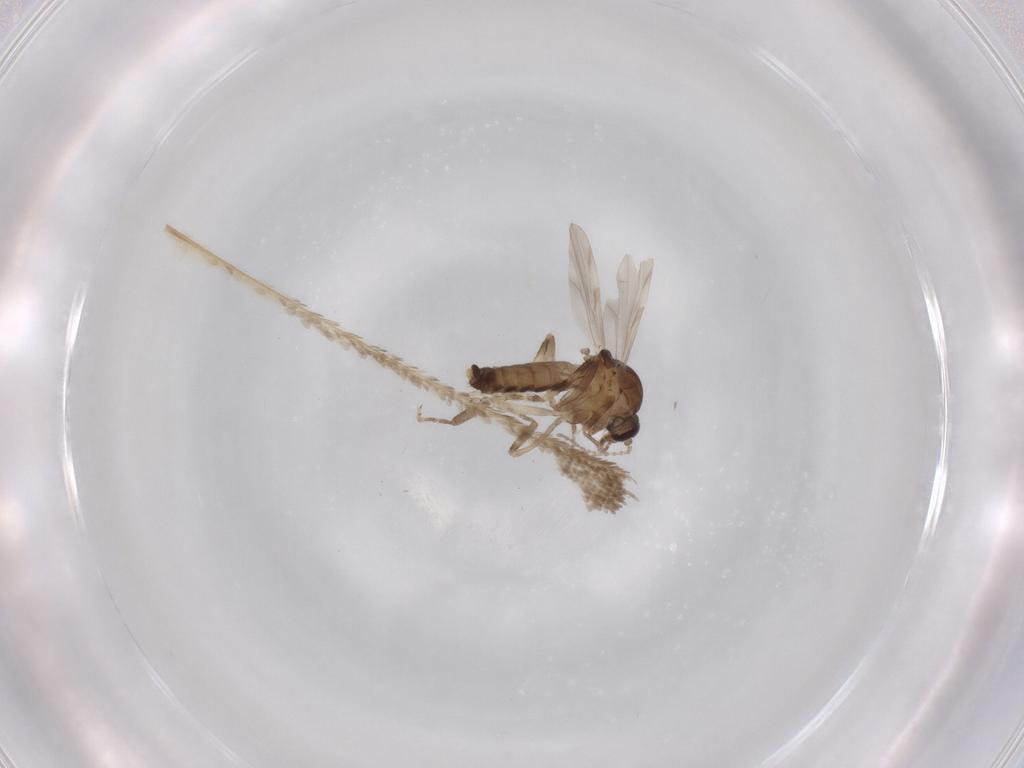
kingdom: Animalia
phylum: Arthropoda
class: Insecta
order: Diptera
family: Ceratopogonidae
